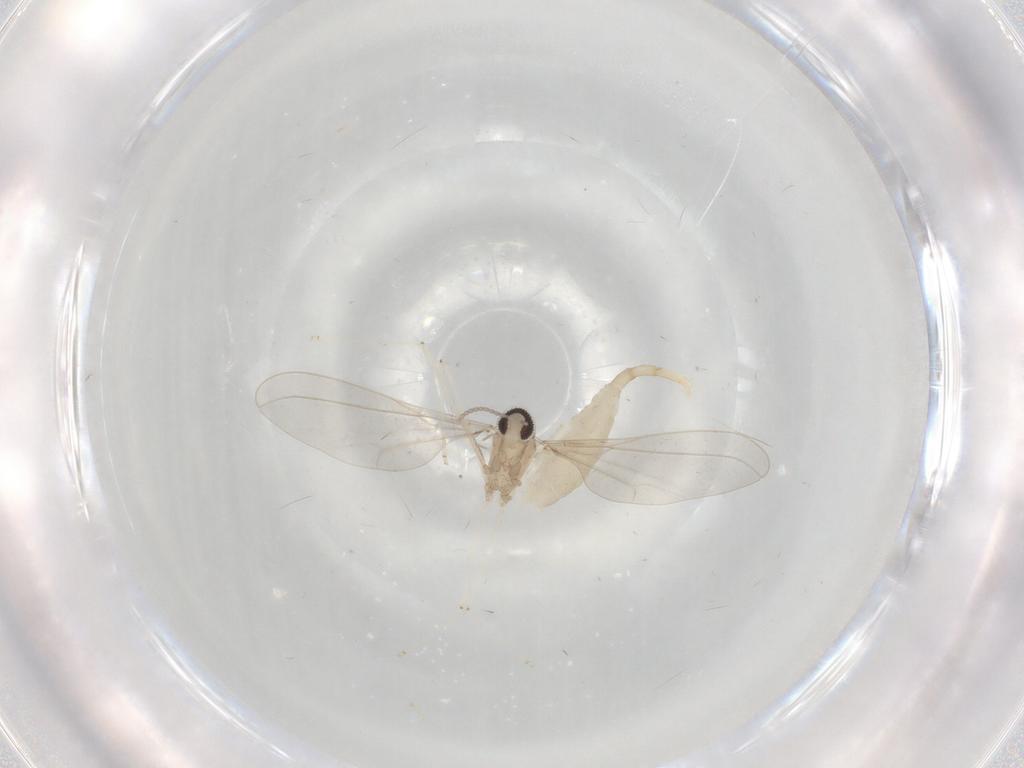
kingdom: Animalia
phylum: Arthropoda
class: Insecta
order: Diptera
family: Cecidomyiidae
